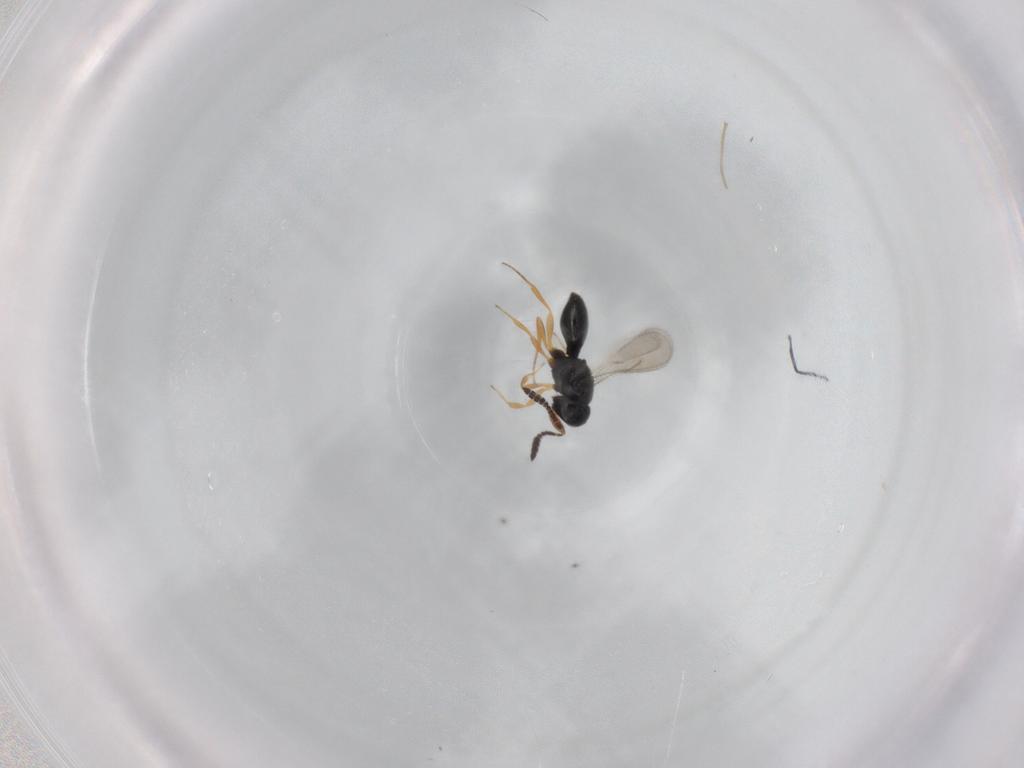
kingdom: Animalia
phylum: Arthropoda
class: Insecta
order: Hymenoptera
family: Scelionidae
